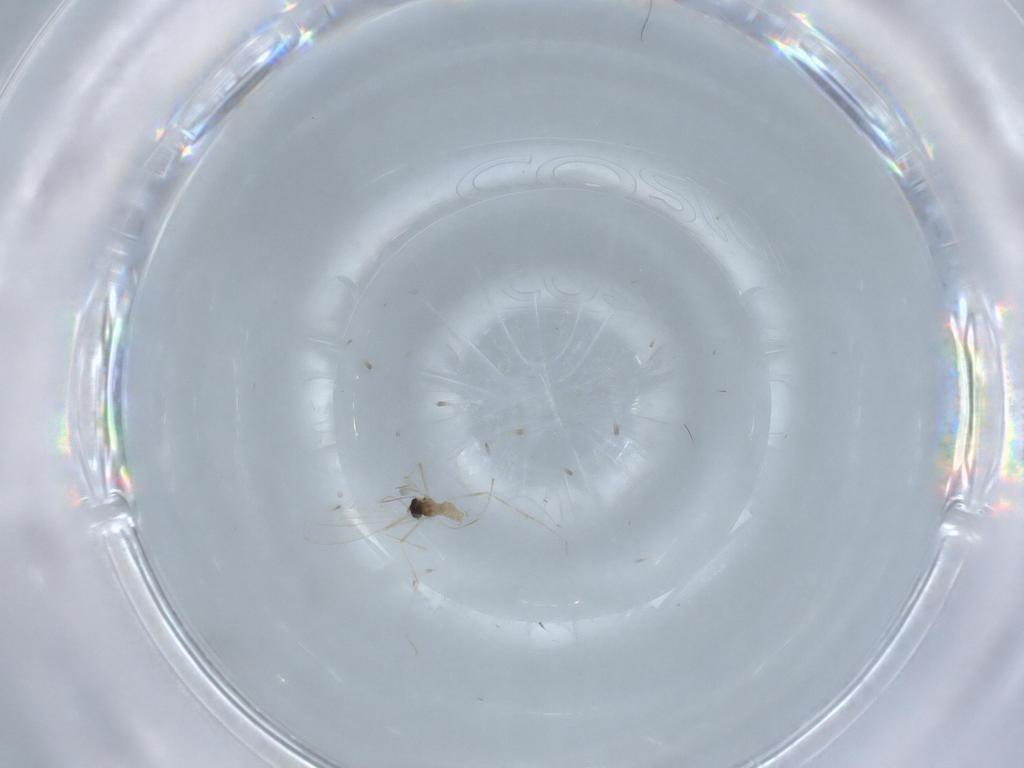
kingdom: Animalia
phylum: Arthropoda
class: Insecta
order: Diptera
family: Cecidomyiidae
